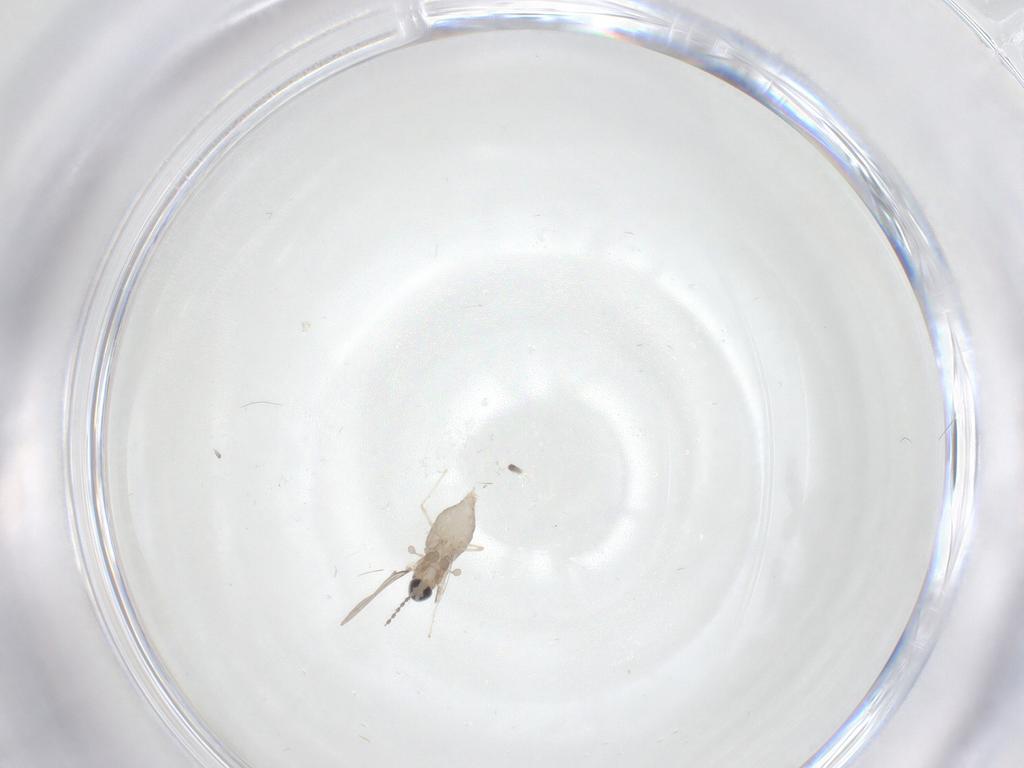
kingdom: Animalia
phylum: Arthropoda
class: Insecta
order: Diptera
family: Cecidomyiidae
